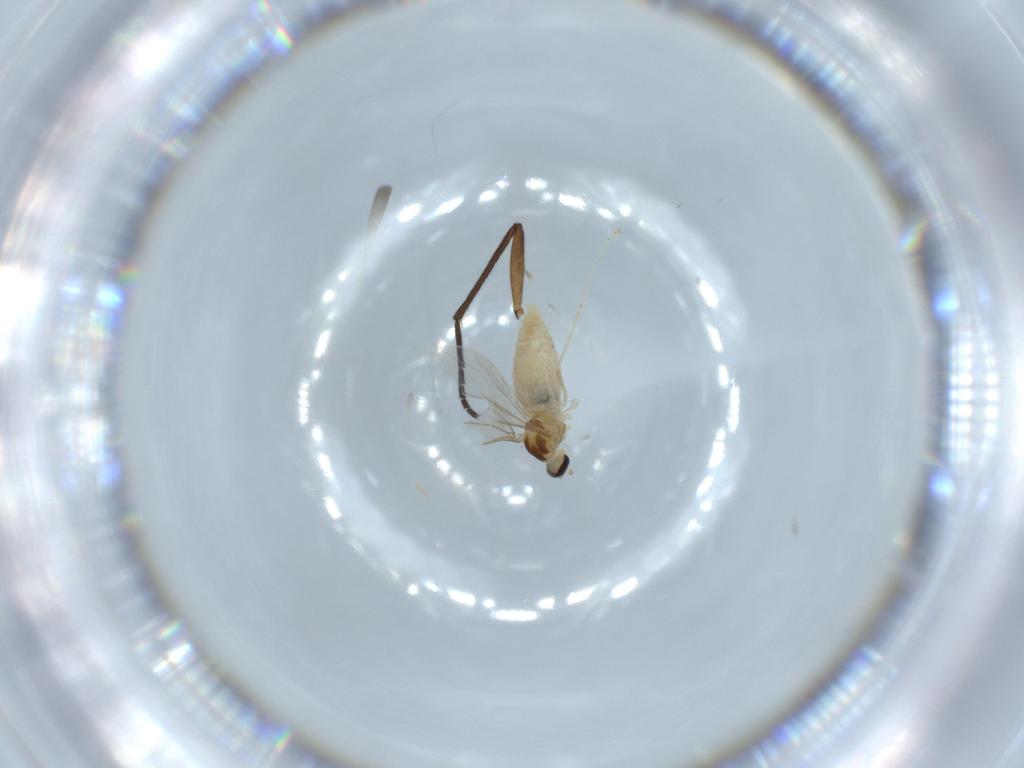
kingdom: Animalia
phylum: Arthropoda
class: Insecta
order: Diptera
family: Cecidomyiidae
